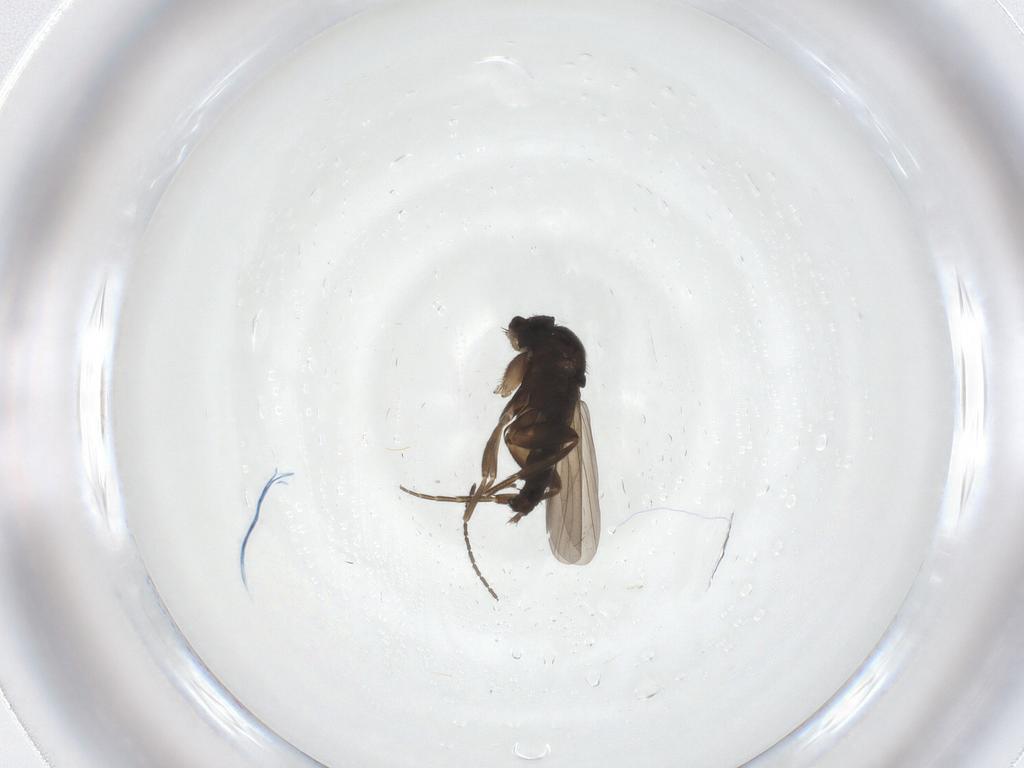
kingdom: Animalia
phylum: Arthropoda
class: Insecta
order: Diptera
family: Phoridae
